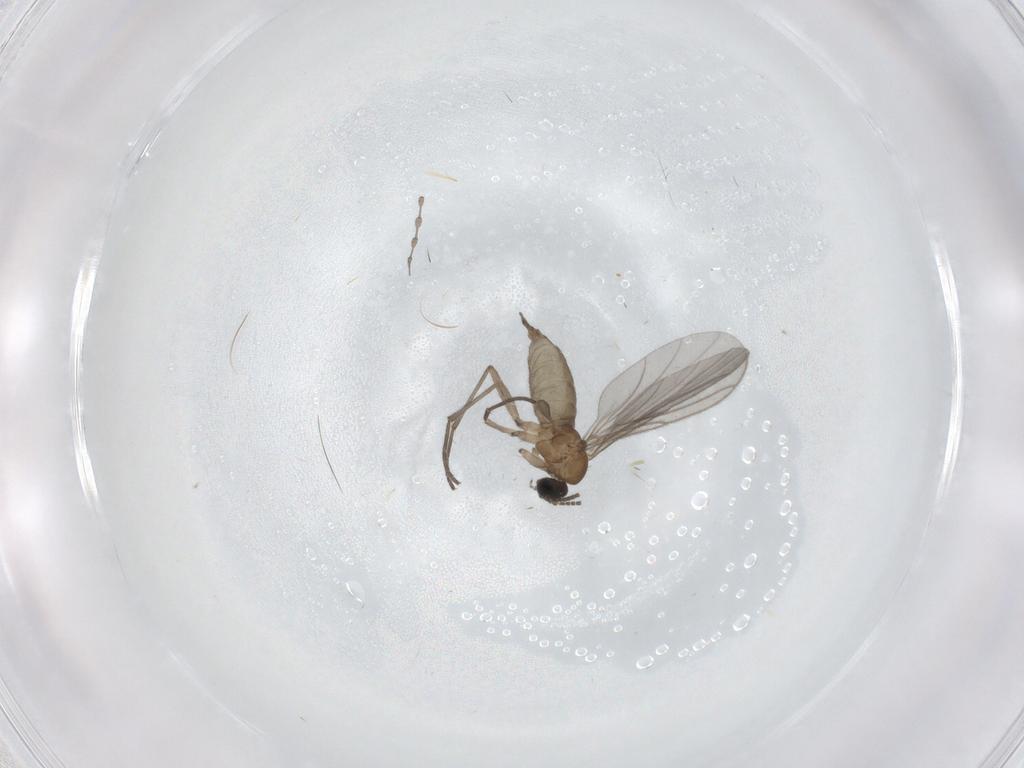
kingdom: Animalia
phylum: Arthropoda
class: Insecta
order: Diptera
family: Sciaridae
